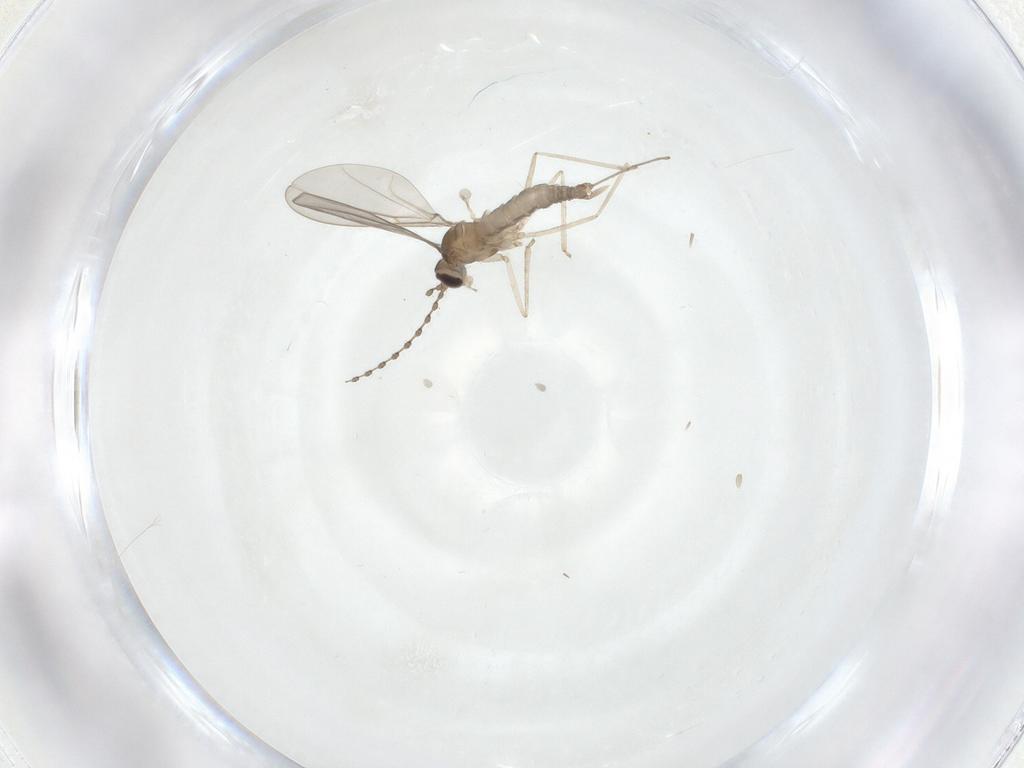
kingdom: Animalia
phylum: Arthropoda
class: Insecta
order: Diptera
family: Cecidomyiidae
